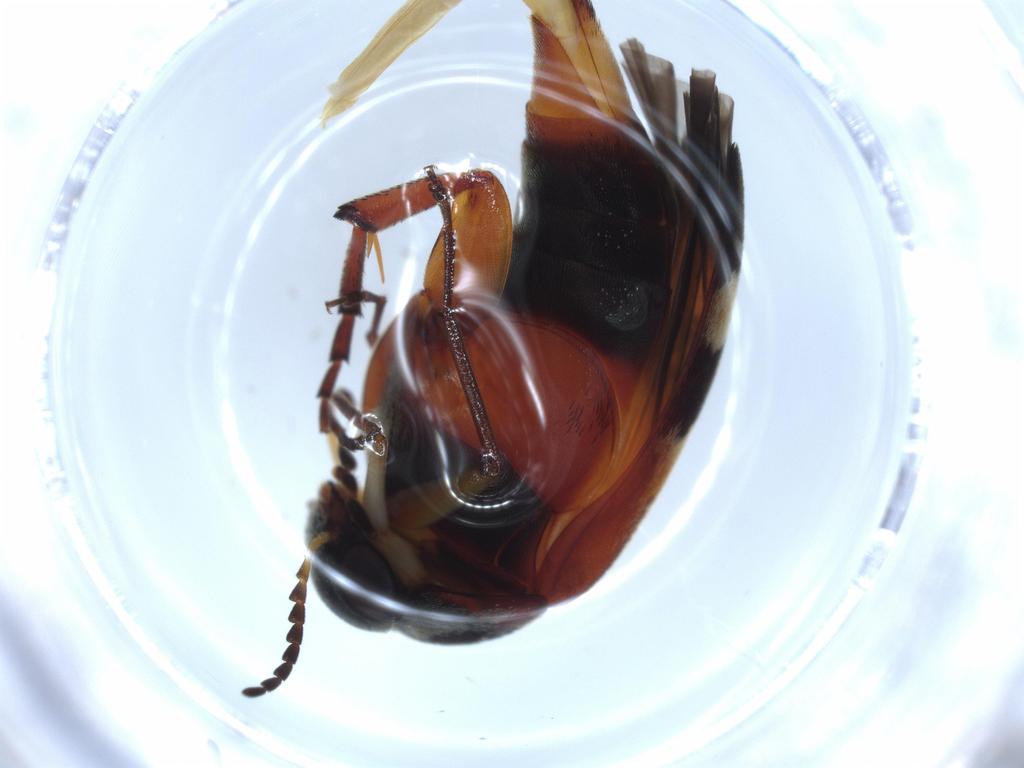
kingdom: Animalia
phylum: Arthropoda
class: Insecta
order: Coleoptera
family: Mordellidae
